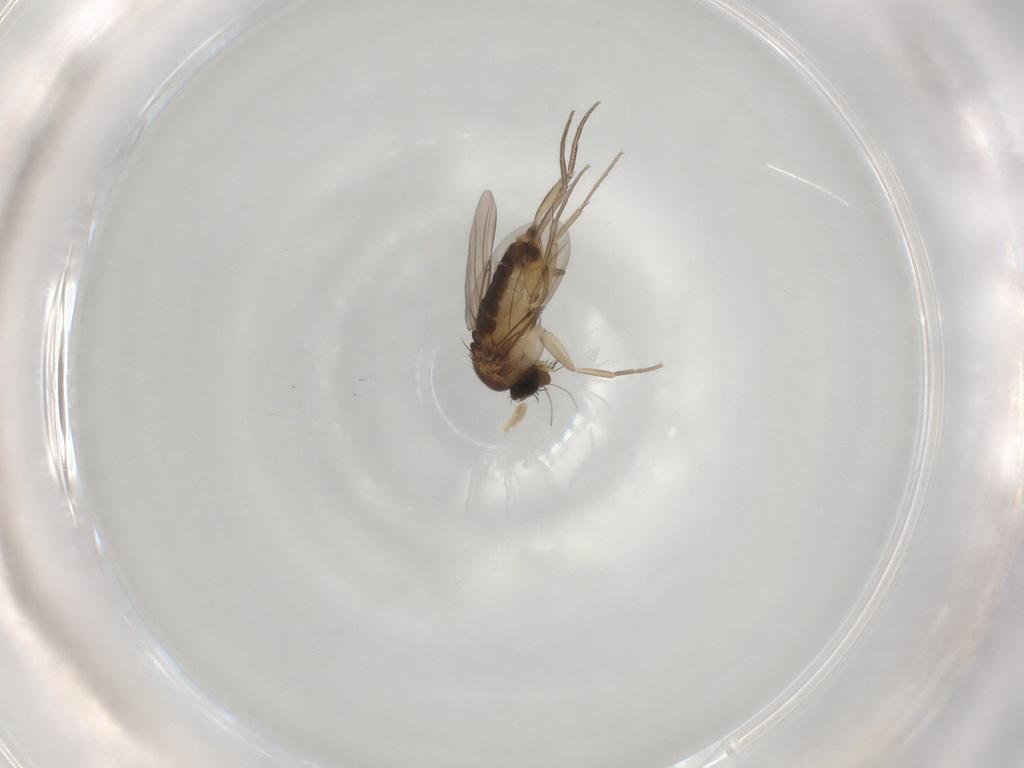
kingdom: Animalia
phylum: Arthropoda
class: Insecta
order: Diptera
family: Phoridae
